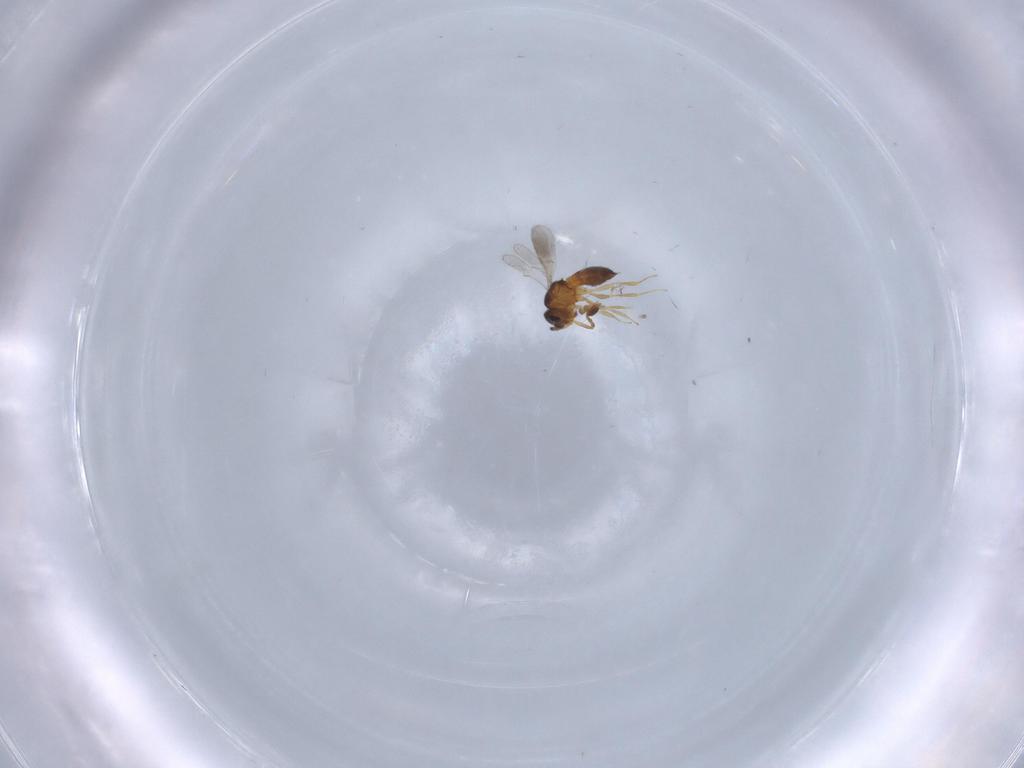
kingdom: Animalia
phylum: Arthropoda
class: Insecta
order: Hymenoptera
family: Scelionidae
